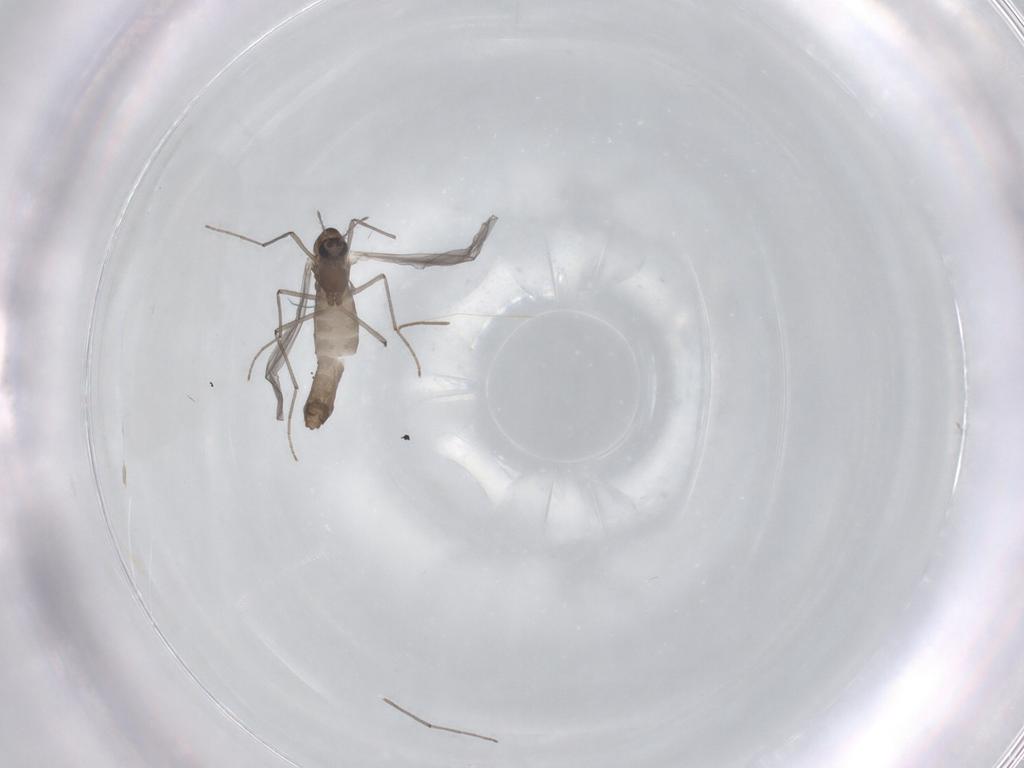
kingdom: Animalia
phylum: Arthropoda
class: Insecta
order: Diptera
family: Chironomidae
